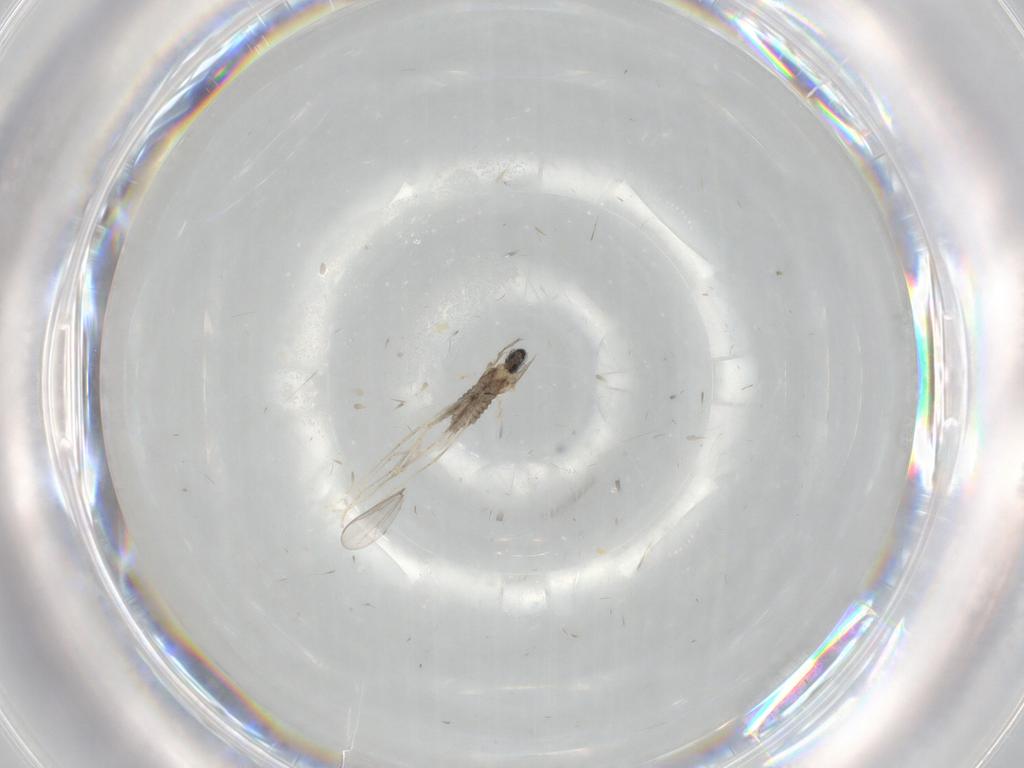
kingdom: Animalia
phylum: Arthropoda
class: Insecta
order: Diptera
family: Cecidomyiidae
